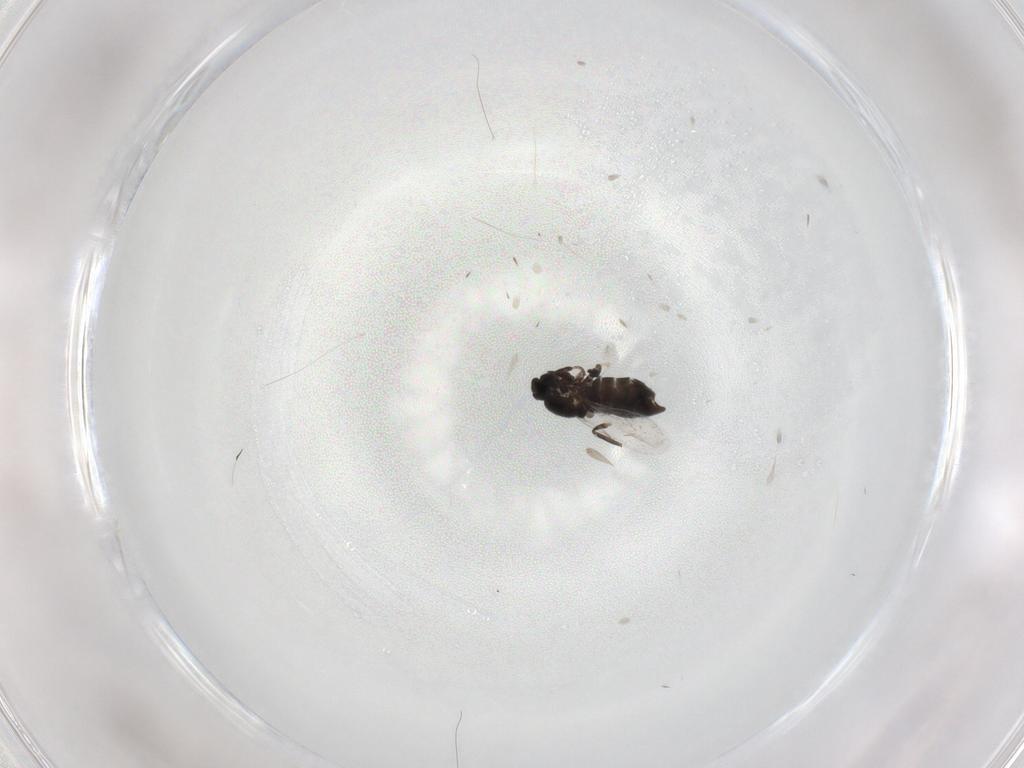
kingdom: Animalia
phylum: Arthropoda
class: Insecta
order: Diptera
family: Scatopsidae
